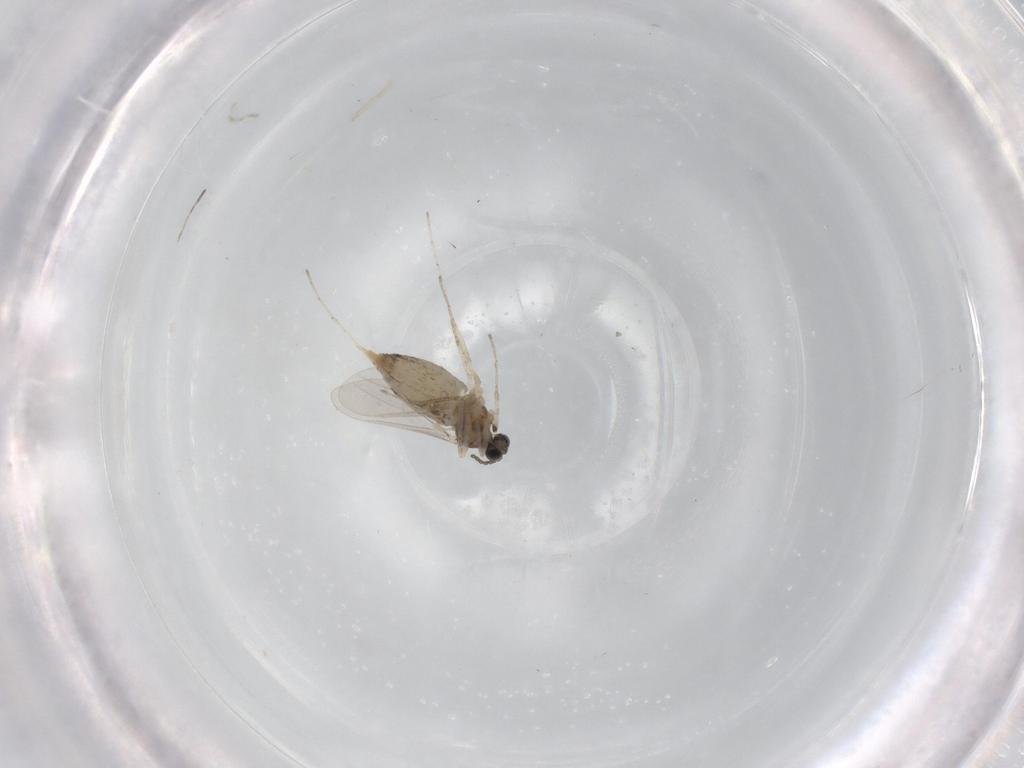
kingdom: Animalia
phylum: Arthropoda
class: Insecta
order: Diptera
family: Cecidomyiidae
